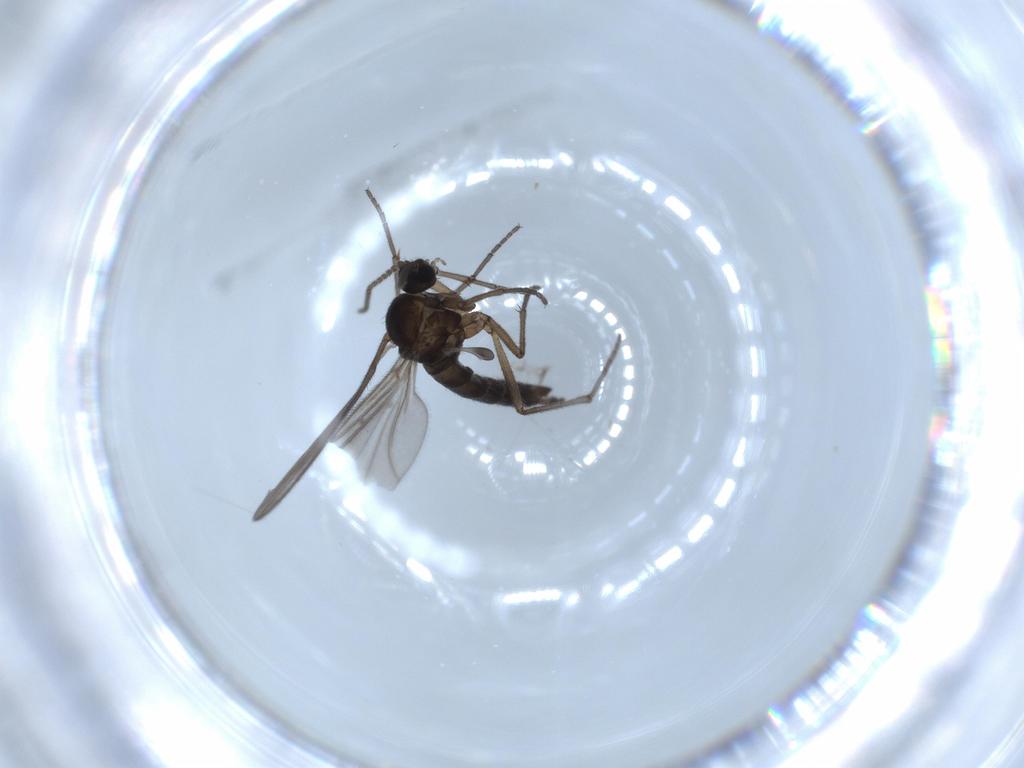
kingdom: Animalia
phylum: Arthropoda
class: Insecta
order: Diptera
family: Sciaridae
